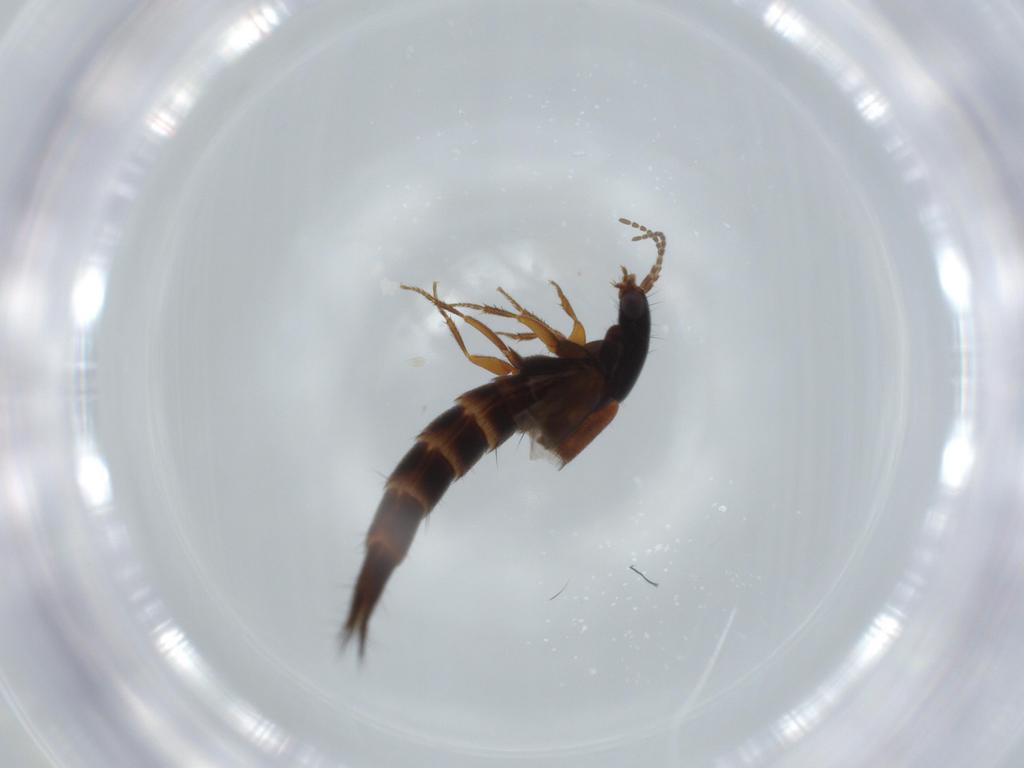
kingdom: Animalia
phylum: Arthropoda
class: Insecta
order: Coleoptera
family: Staphylinidae
